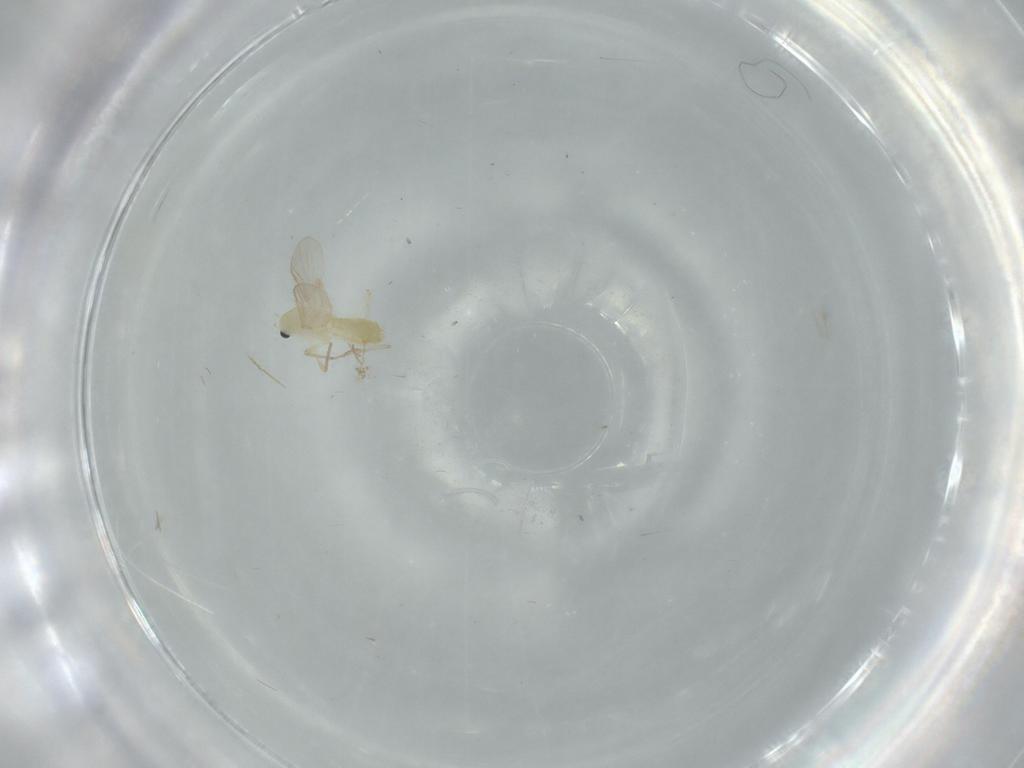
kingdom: Animalia
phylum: Arthropoda
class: Insecta
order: Diptera
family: Chironomidae
